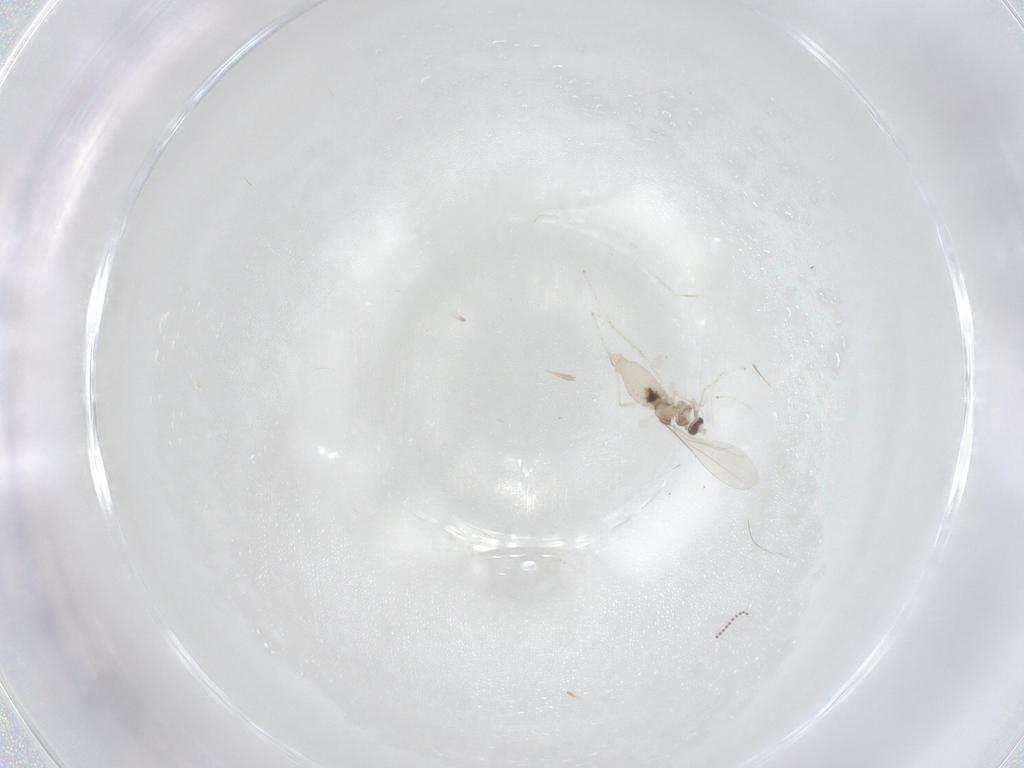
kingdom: Animalia
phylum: Arthropoda
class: Insecta
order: Diptera
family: Cecidomyiidae
